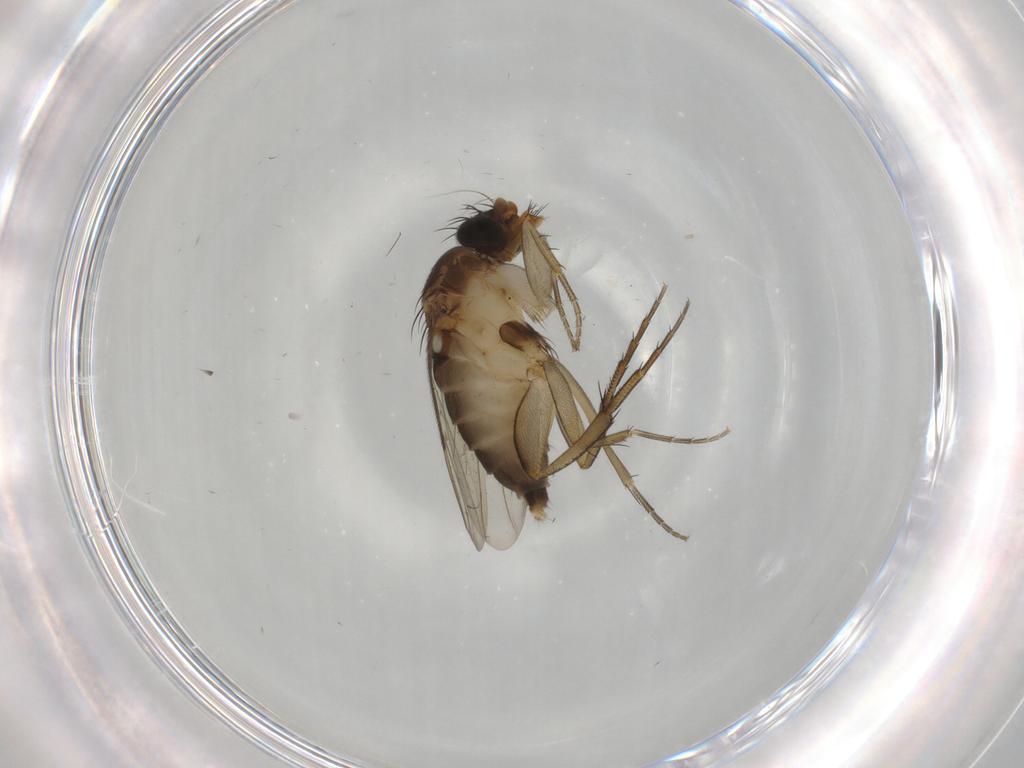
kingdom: Animalia
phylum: Arthropoda
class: Insecta
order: Diptera
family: Phoridae
